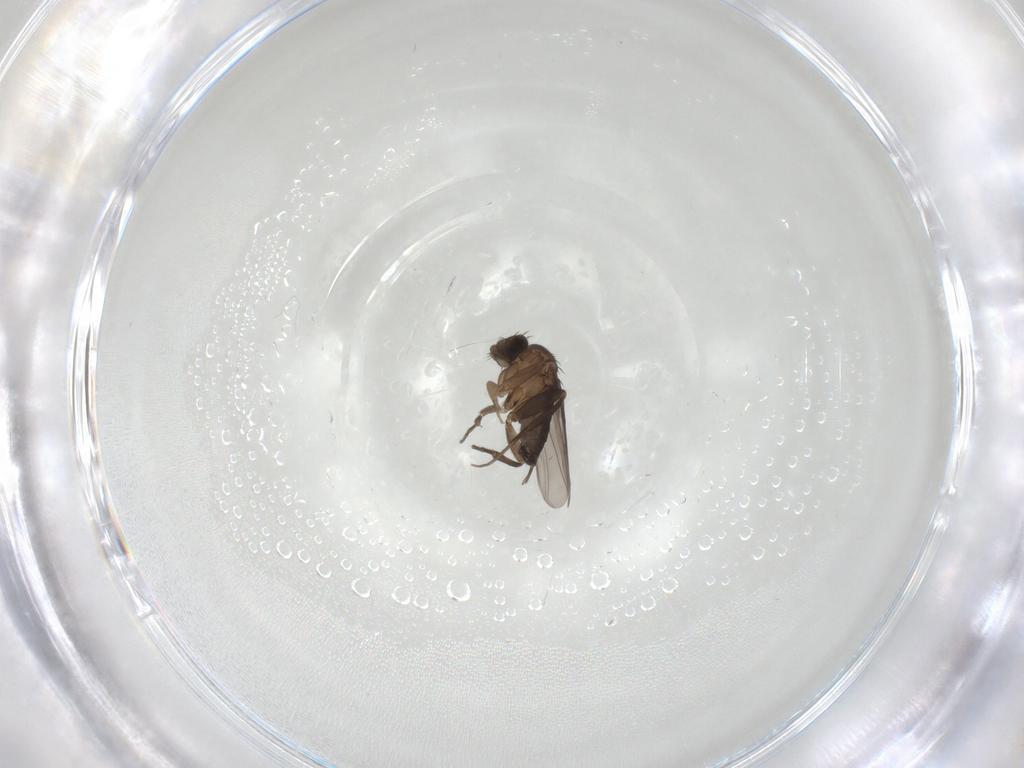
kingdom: Animalia
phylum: Arthropoda
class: Insecta
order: Diptera
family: Phoridae
